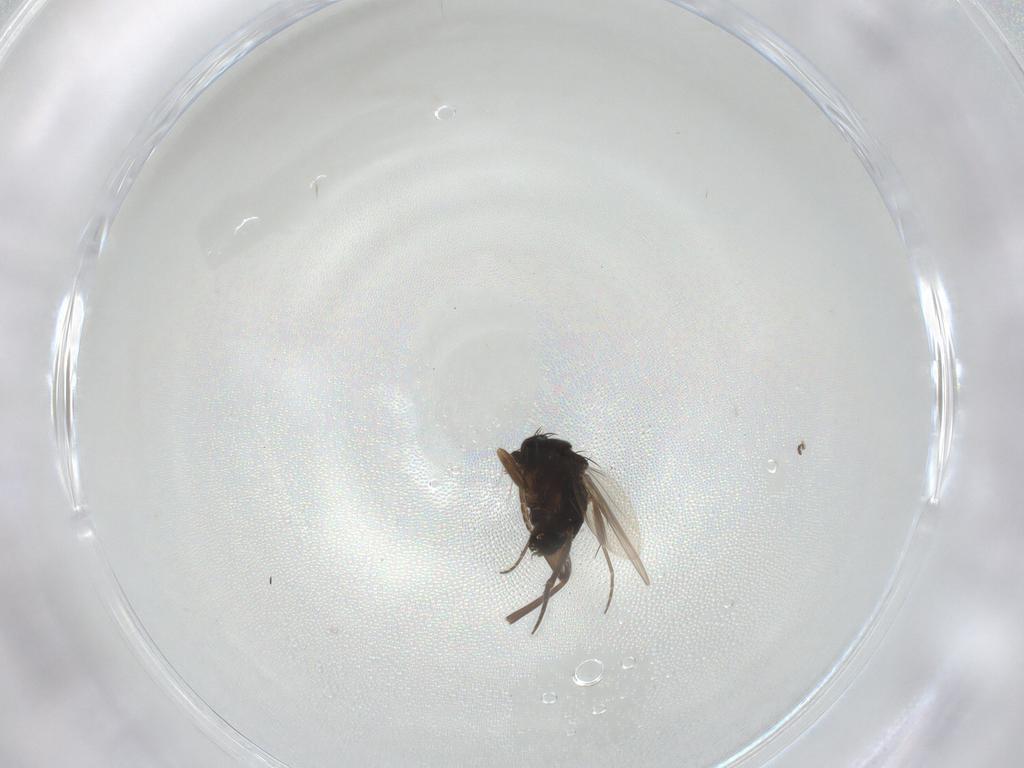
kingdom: Animalia
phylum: Arthropoda
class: Insecta
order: Diptera
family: Phoridae
